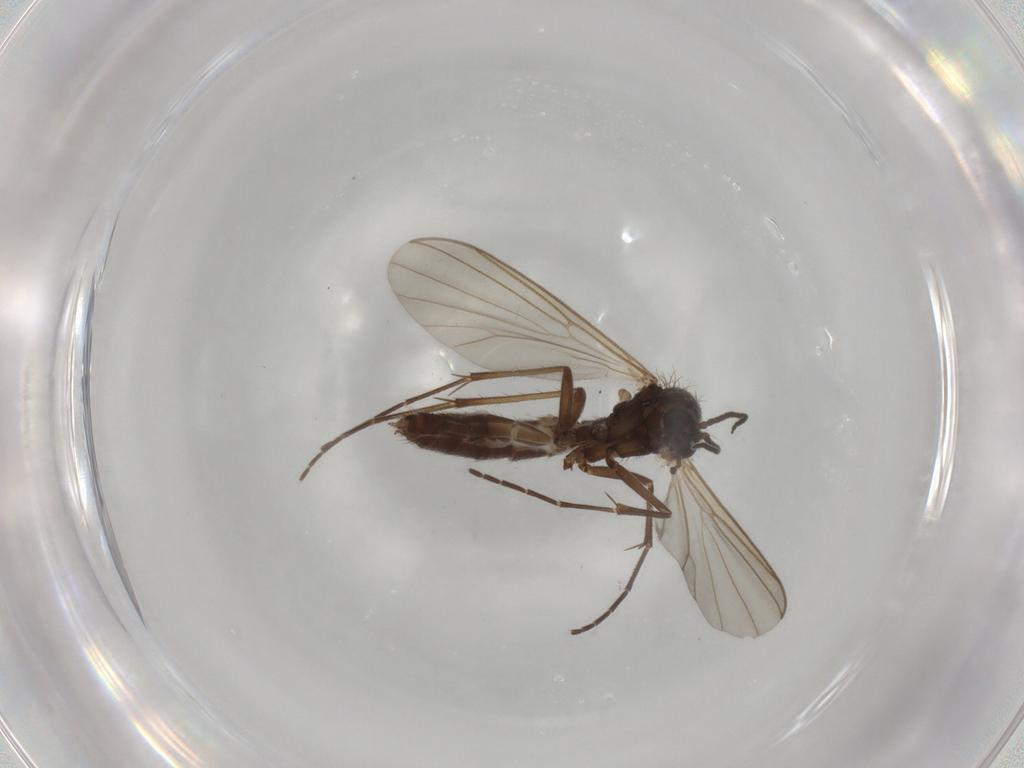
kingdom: Animalia
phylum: Arthropoda
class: Insecta
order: Diptera
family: Mycetophilidae
